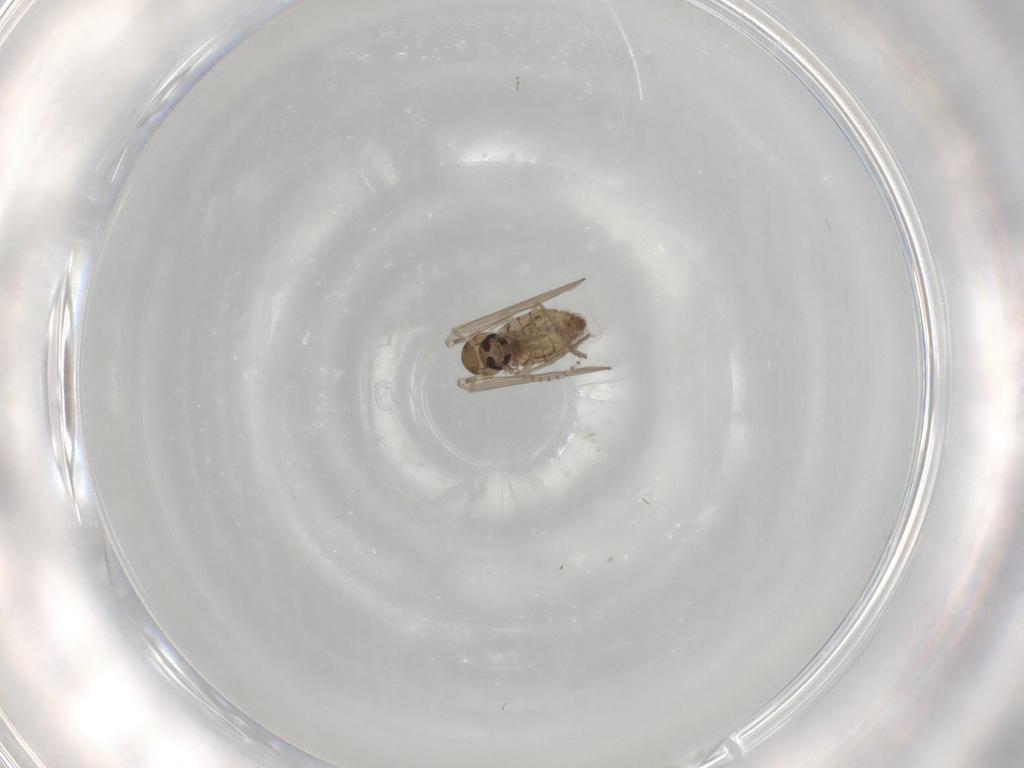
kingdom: Animalia
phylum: Arthropoda
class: Insecta
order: Diptera
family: Psychodidae
